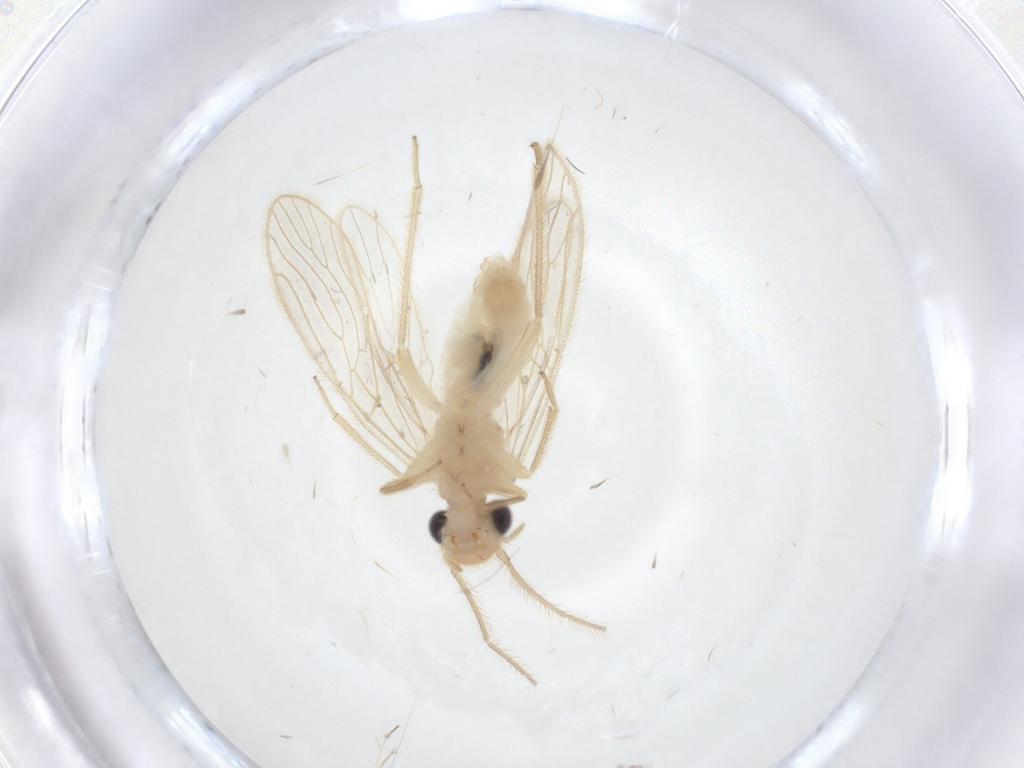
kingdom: Animalia
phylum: Arthropoda
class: Insecta
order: Psocodea
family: Cladiopsocidae
